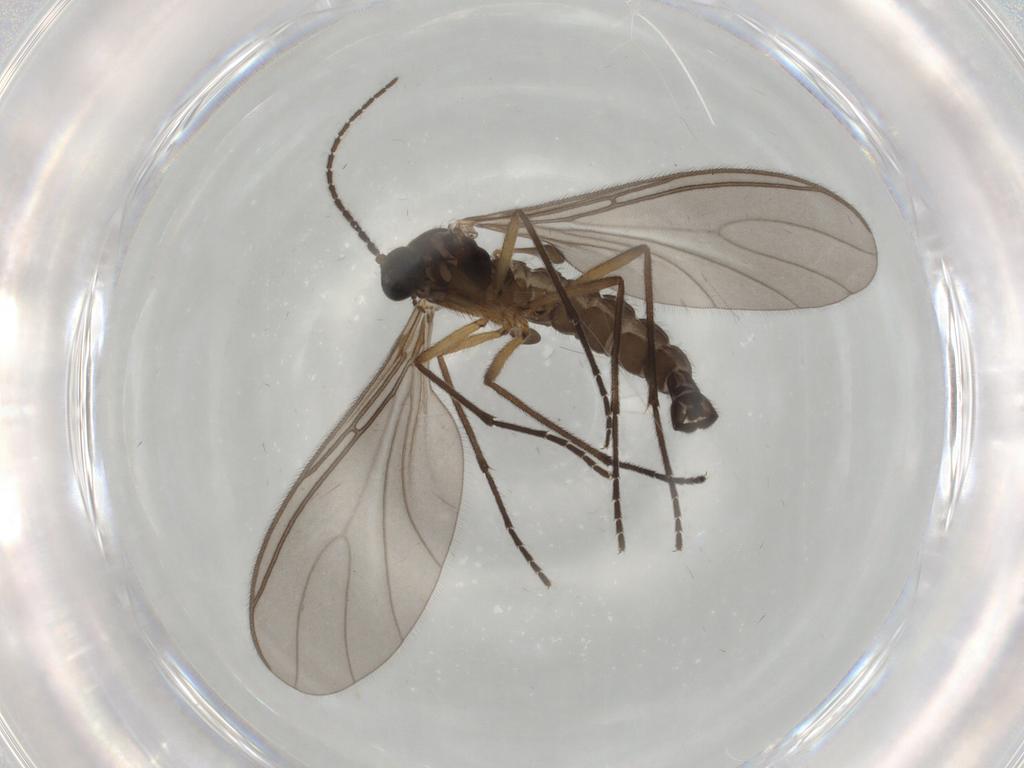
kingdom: Animalia
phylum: Arthropoda
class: Insecta
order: Diptera
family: Sciaridae
